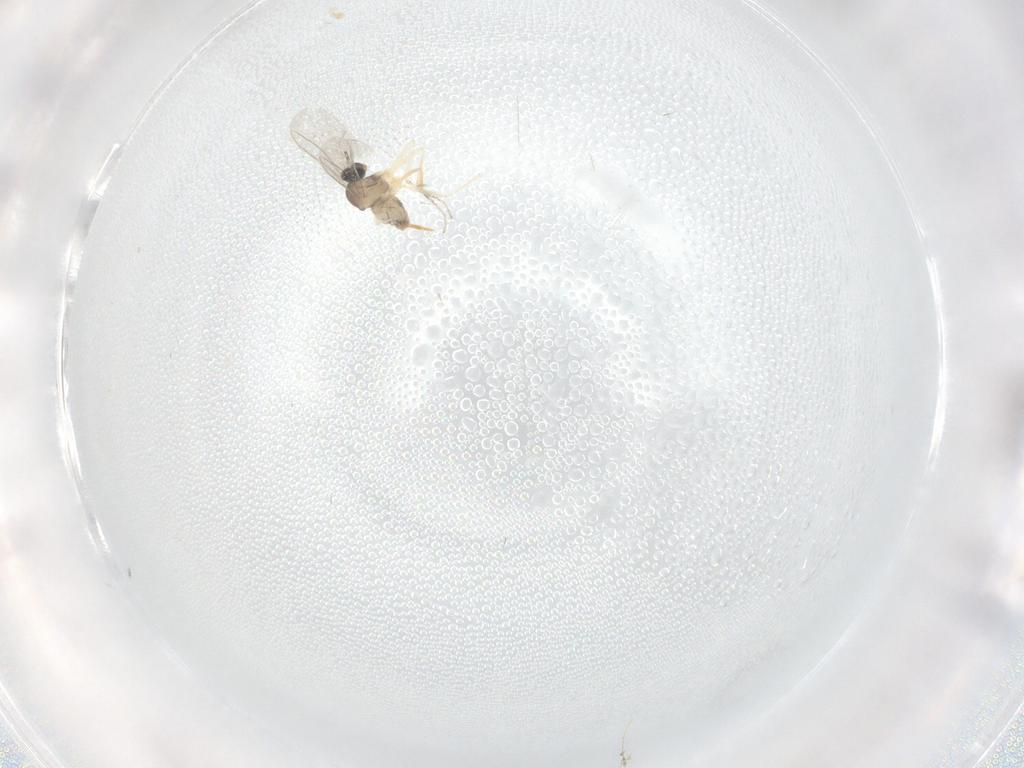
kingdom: Animalia
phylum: Arthropoda
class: Insecta
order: Diptera
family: Cecidomyiidae
